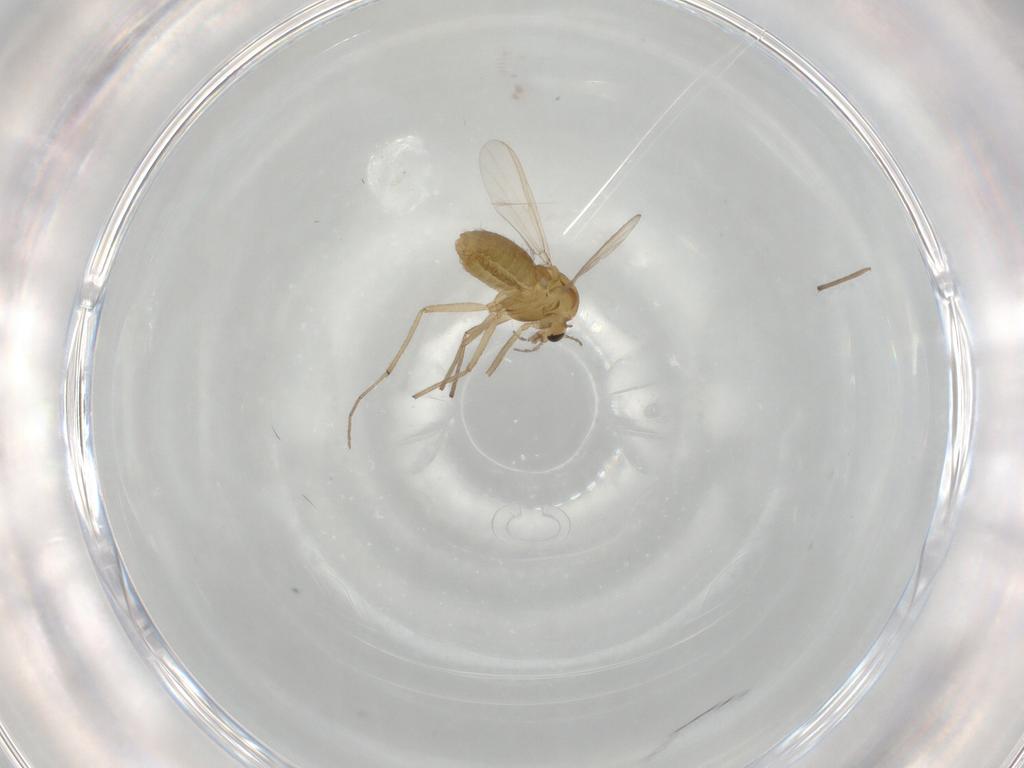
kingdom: Animalia
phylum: Arthropoda
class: Insecta
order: Diptera
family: Chironomidae
